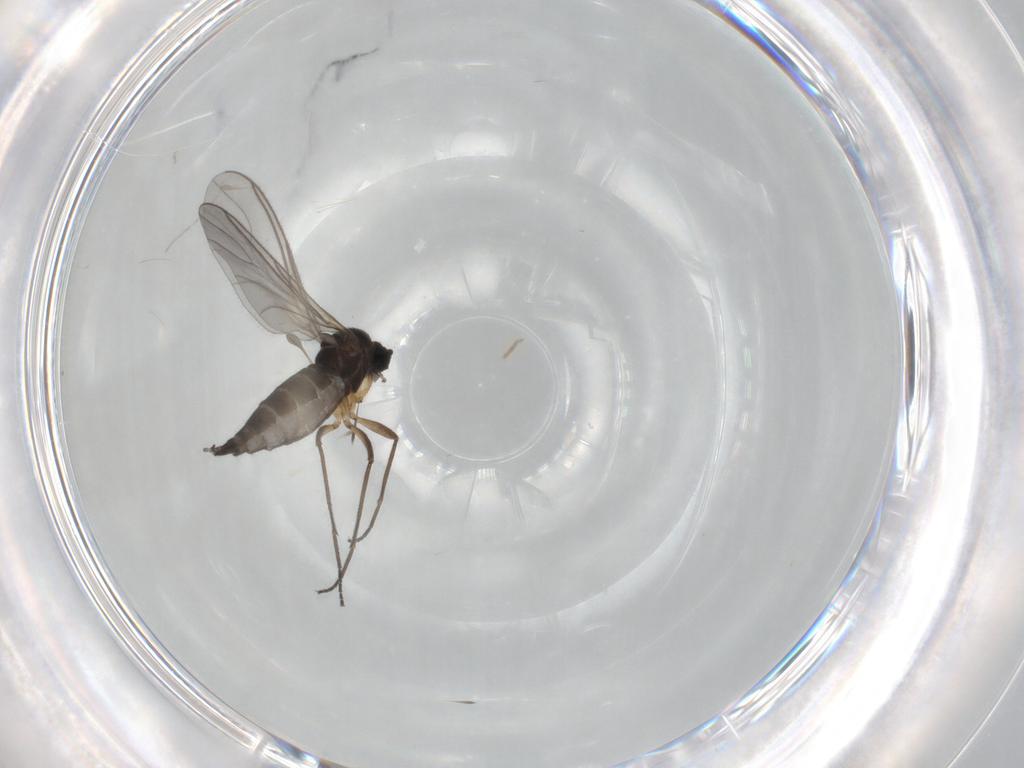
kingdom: Animalia
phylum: Arthropoda
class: Insecta
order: Diptera
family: Sciaridae
